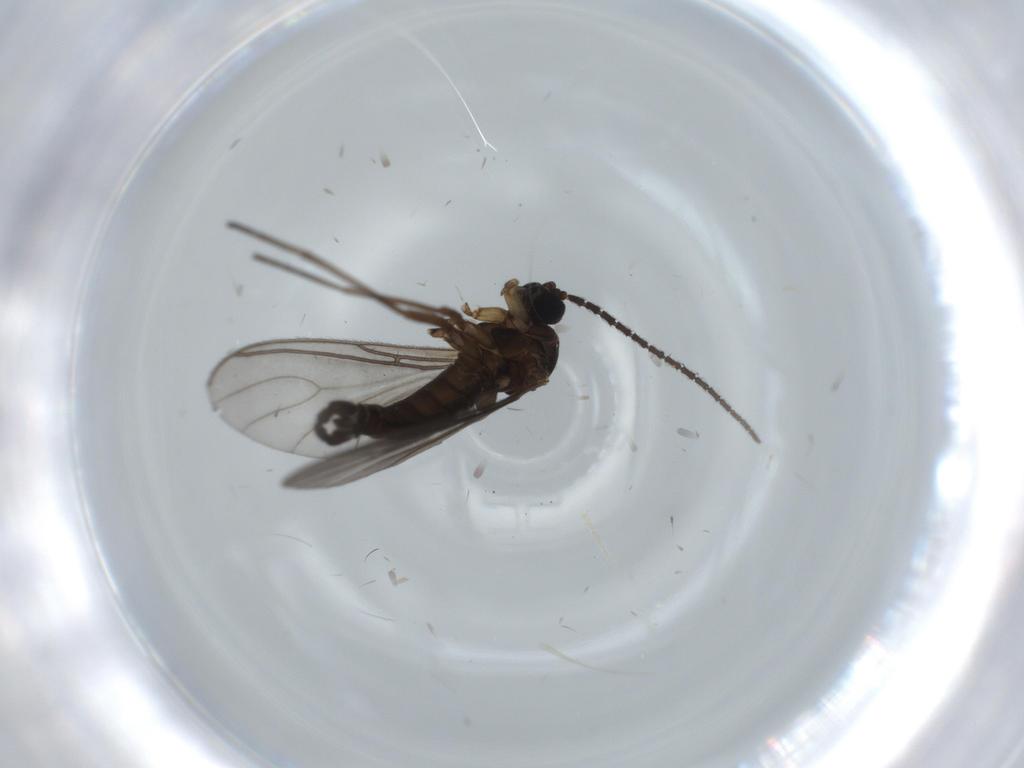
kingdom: Animalia
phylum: Arthropoda
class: Insecta
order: Diptera
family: Sciaridae
